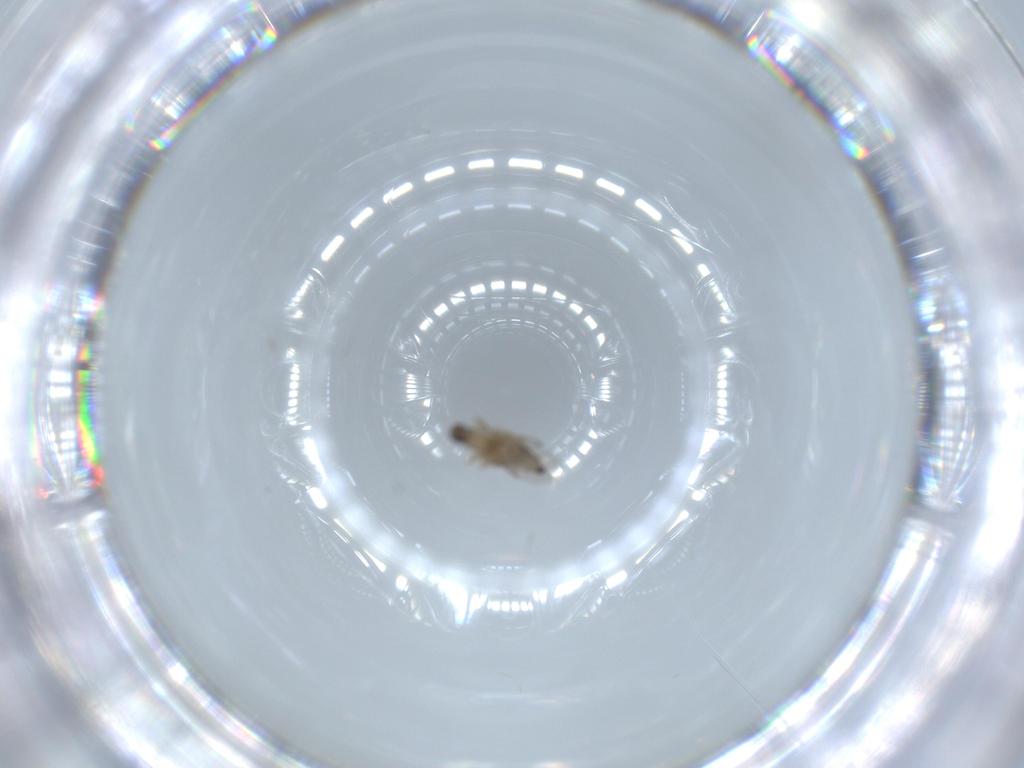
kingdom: Animalia
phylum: Arthropoda
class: Insecta
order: Diptera
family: Phoridae
